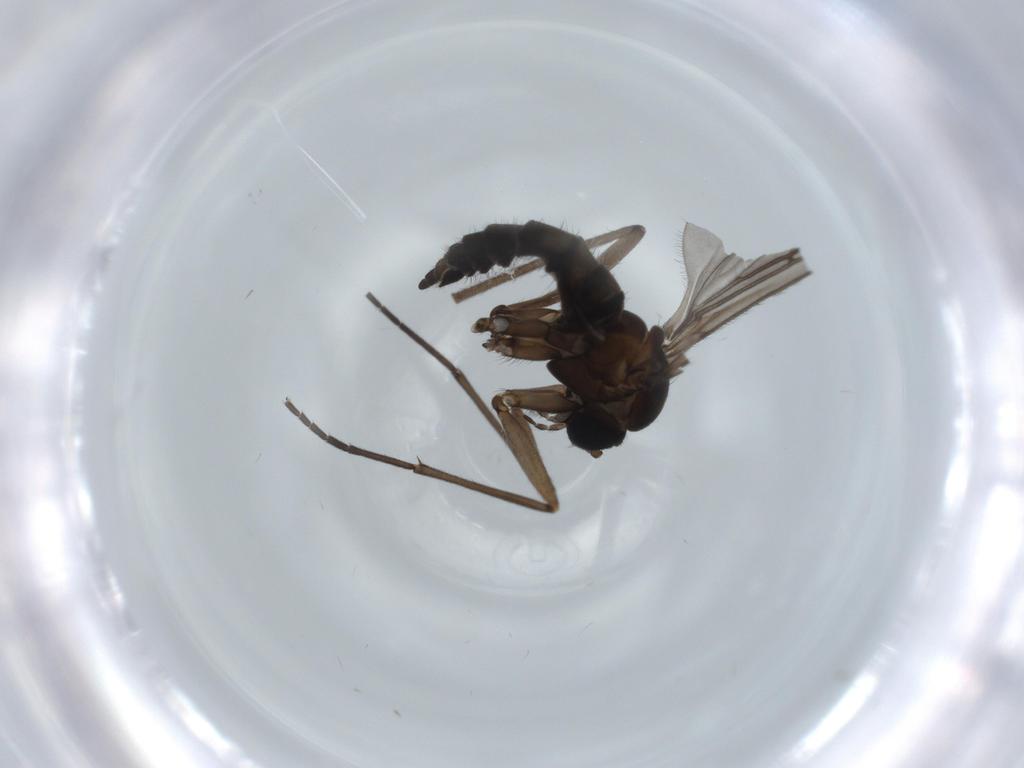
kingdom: Animalia
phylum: Arthropoda
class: Insecta
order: Diptera
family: Sciaridae
